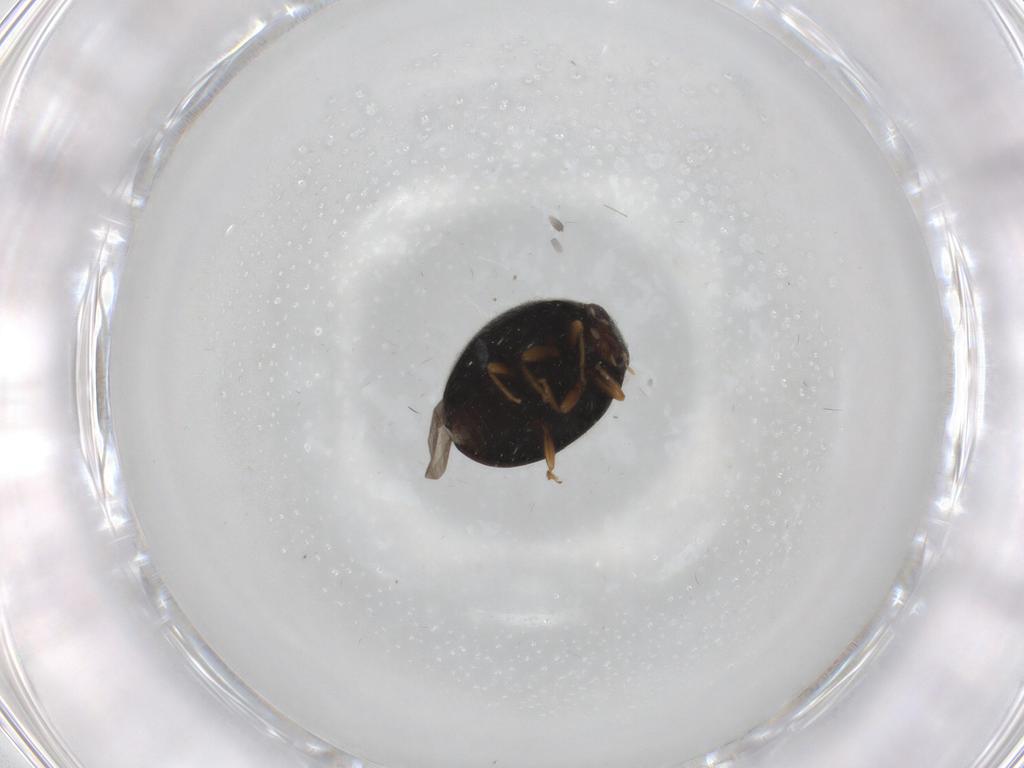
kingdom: Animalia
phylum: Arthropoda
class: Insecta
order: Coleoptera
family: Coccinellidae
